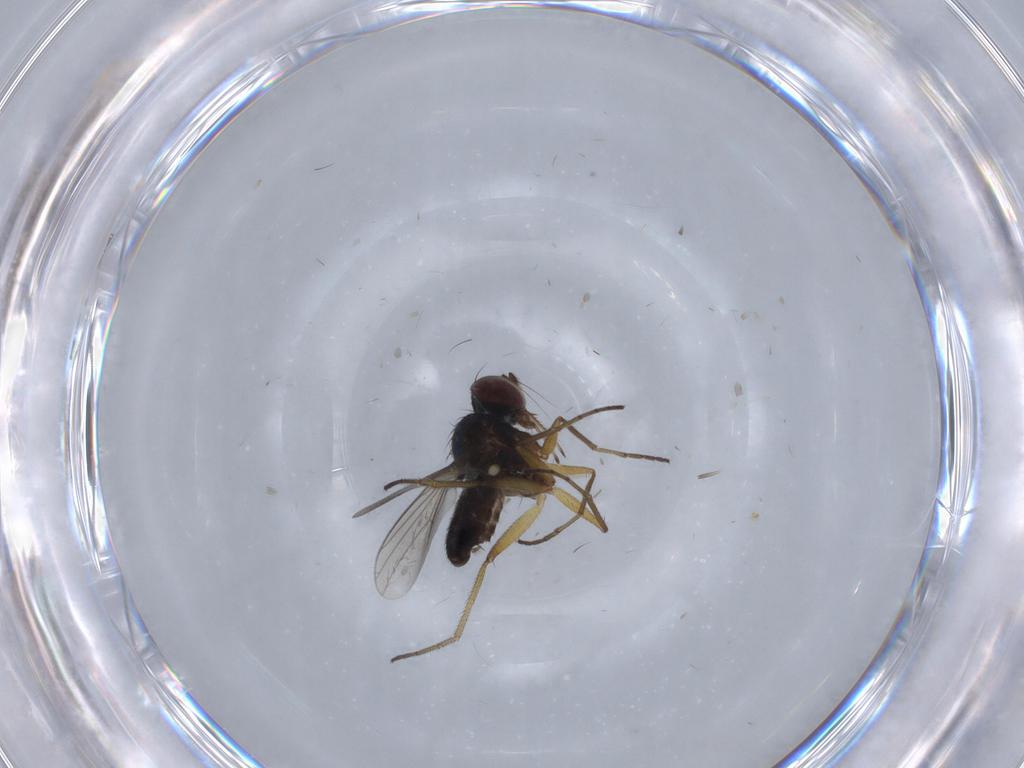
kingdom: Animalia
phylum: Arthropoda
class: Insecta
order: Diptera
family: Dolichopodidae
